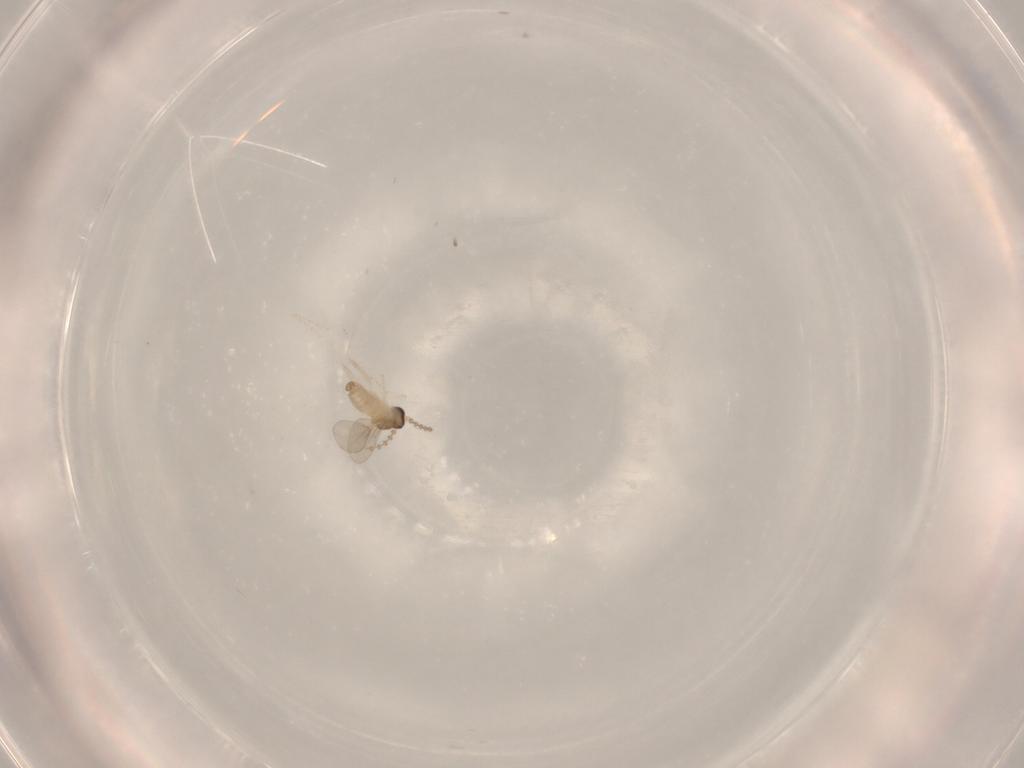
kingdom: Animalia
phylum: Arthropoda
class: Insecta
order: Diptera
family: Cecidomyiidae
